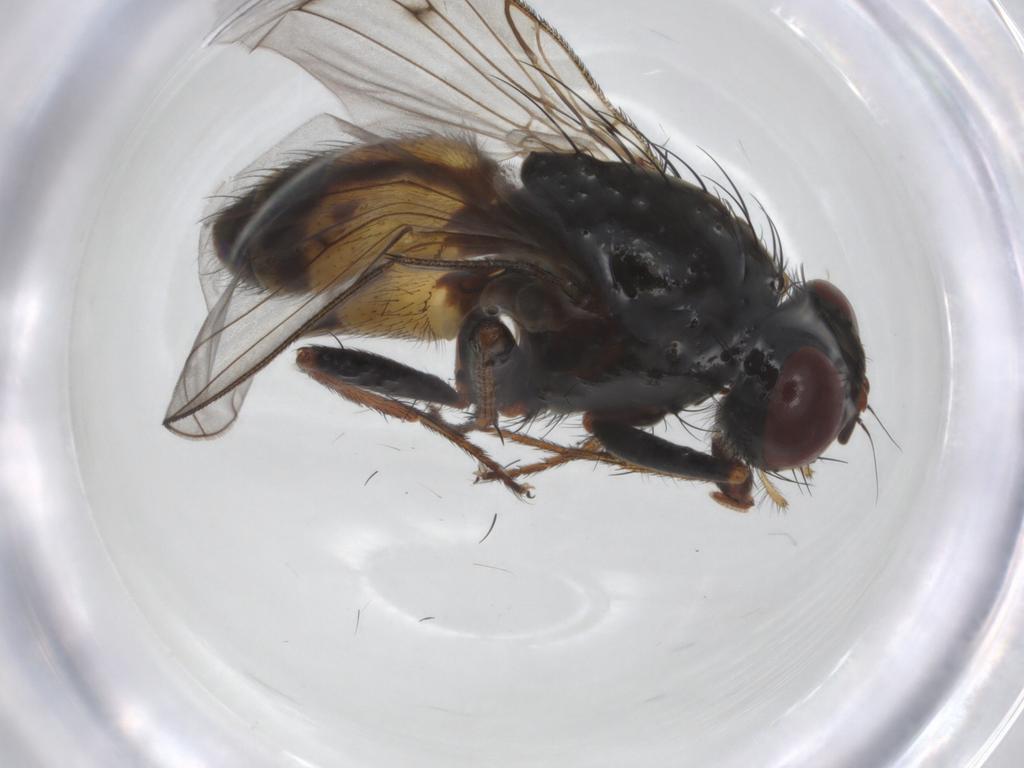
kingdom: Animalia
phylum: Arthropoda
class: Insecta
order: Diptera
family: Muscidae
